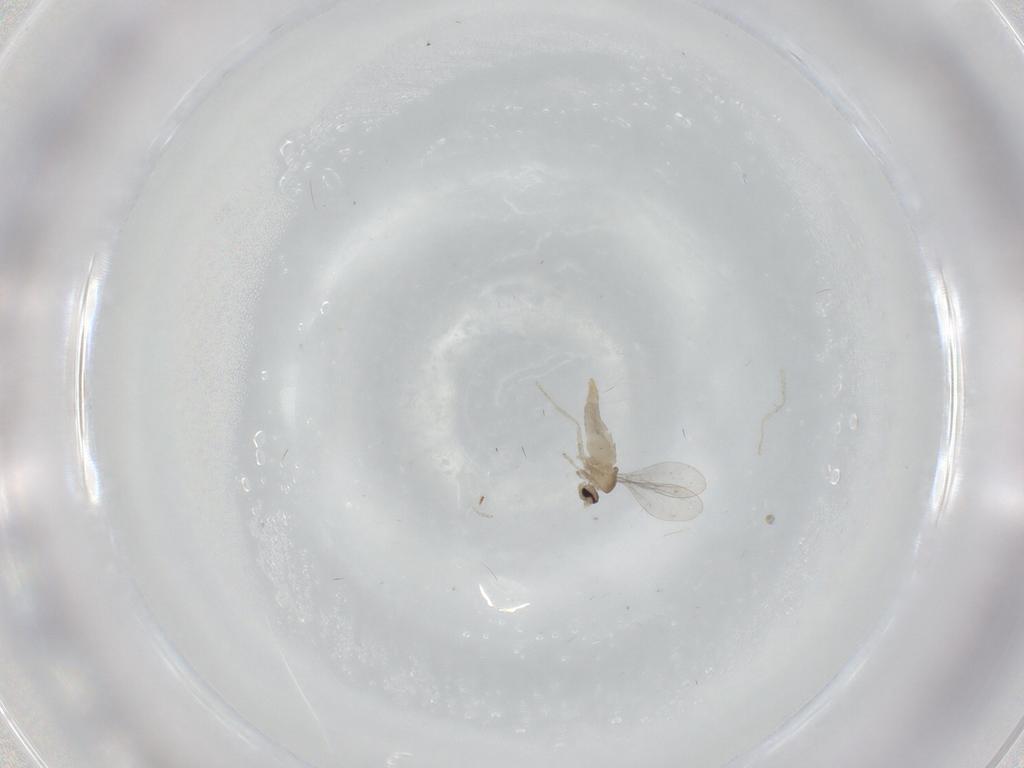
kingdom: Animalia
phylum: Arthropoda
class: Insecta
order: Diptera
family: Cecidomyiidae
